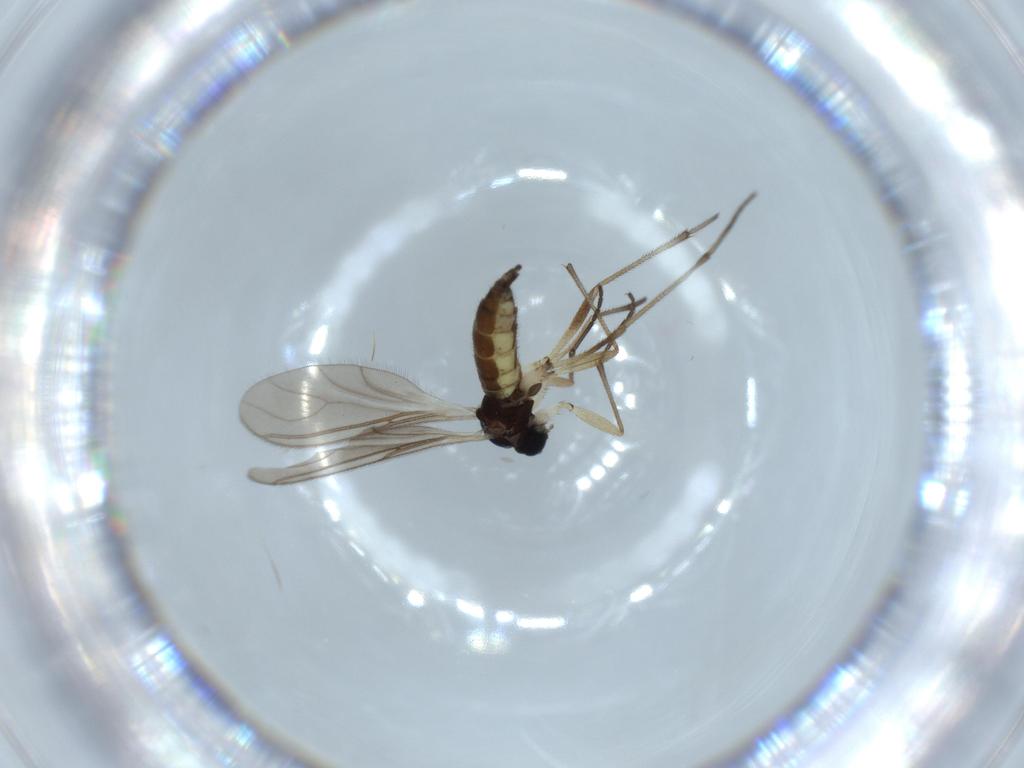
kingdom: Animalia
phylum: Arthropoda
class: Insecta
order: Diptera
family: Sciaridae
